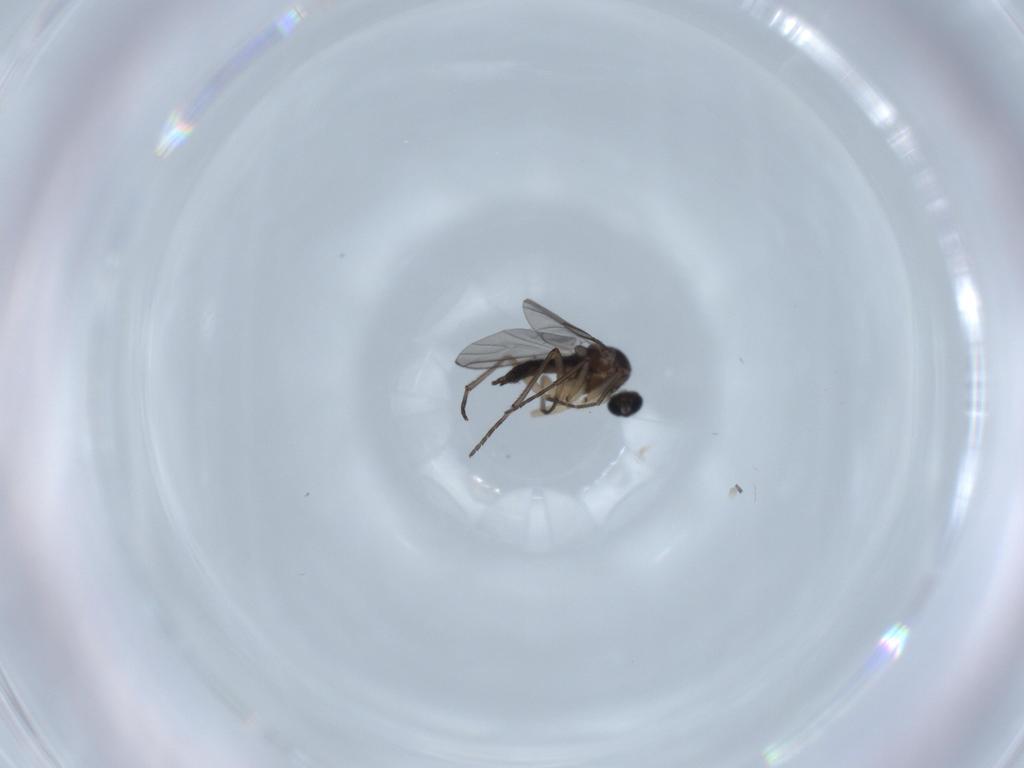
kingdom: Animalia
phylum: Arthropoda
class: Insecta
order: Diptera
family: Sciaridae
